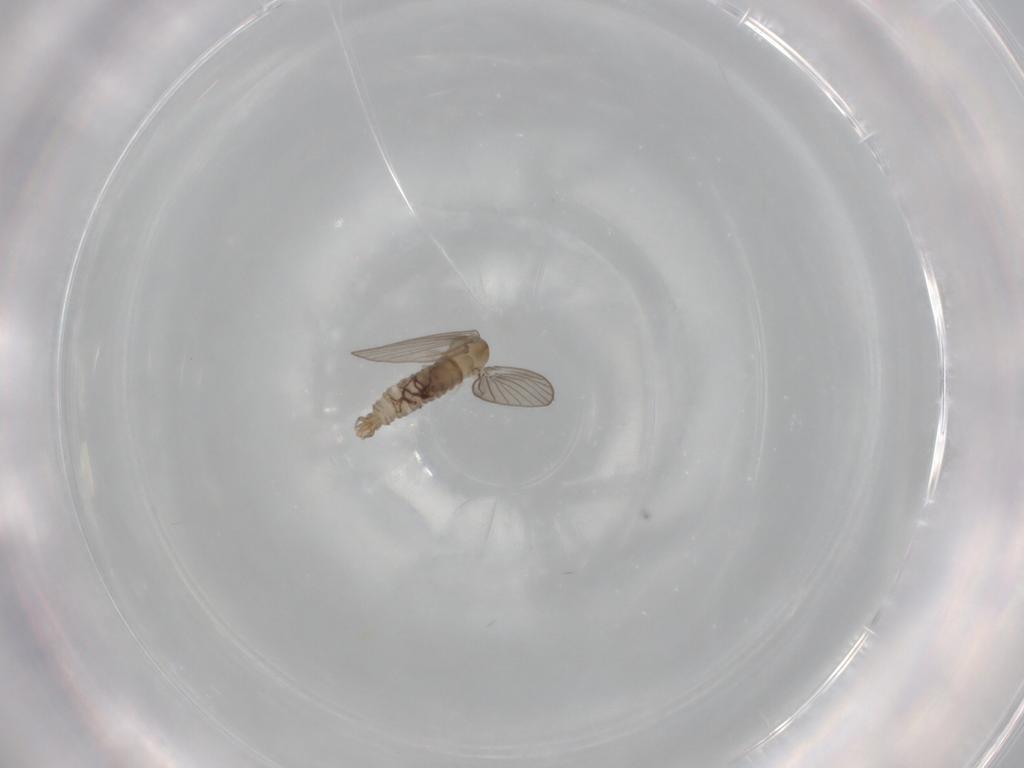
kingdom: Animalia
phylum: Arthropoda
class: Insecta
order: Diptera
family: Psychodidae
